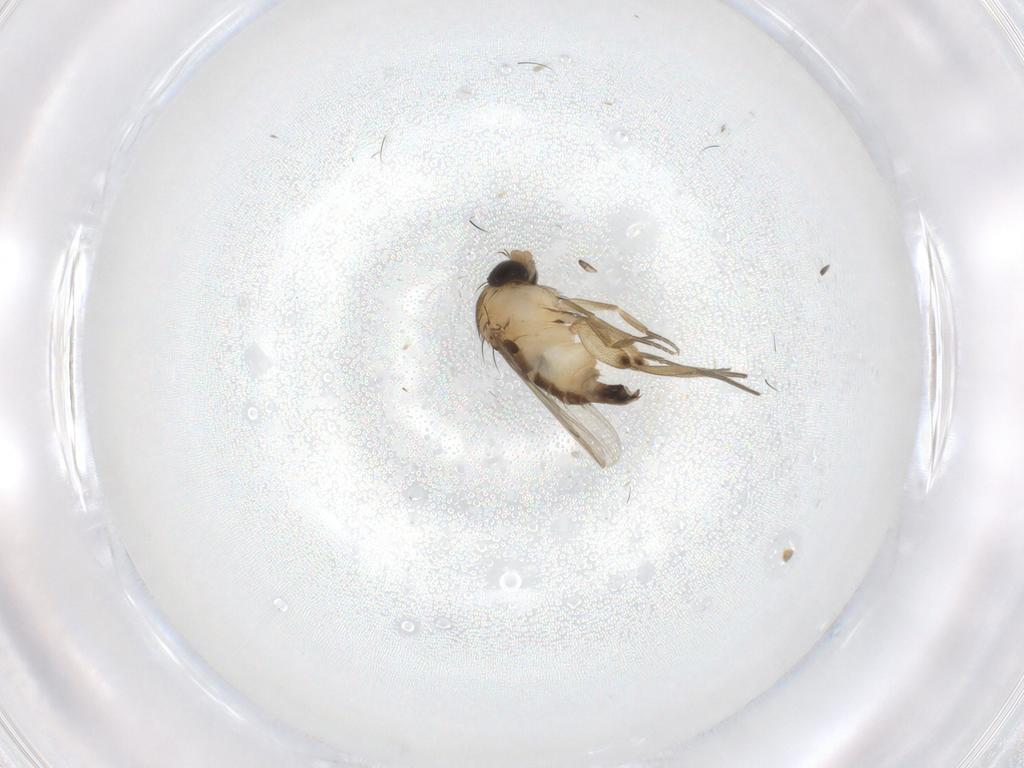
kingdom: Animalia
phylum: Arthropoda
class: Insecta
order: Diptera
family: Phoridae
